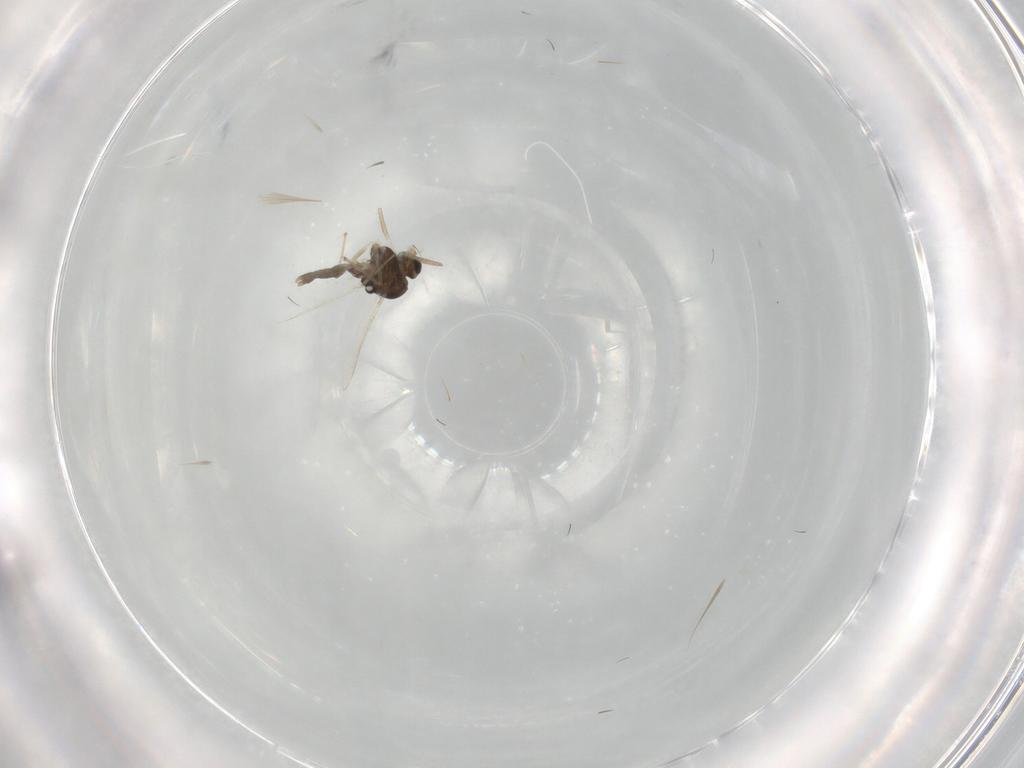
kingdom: Animalia
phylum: Arthropoda
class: Insecta
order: Diptera
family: Chironomidae
